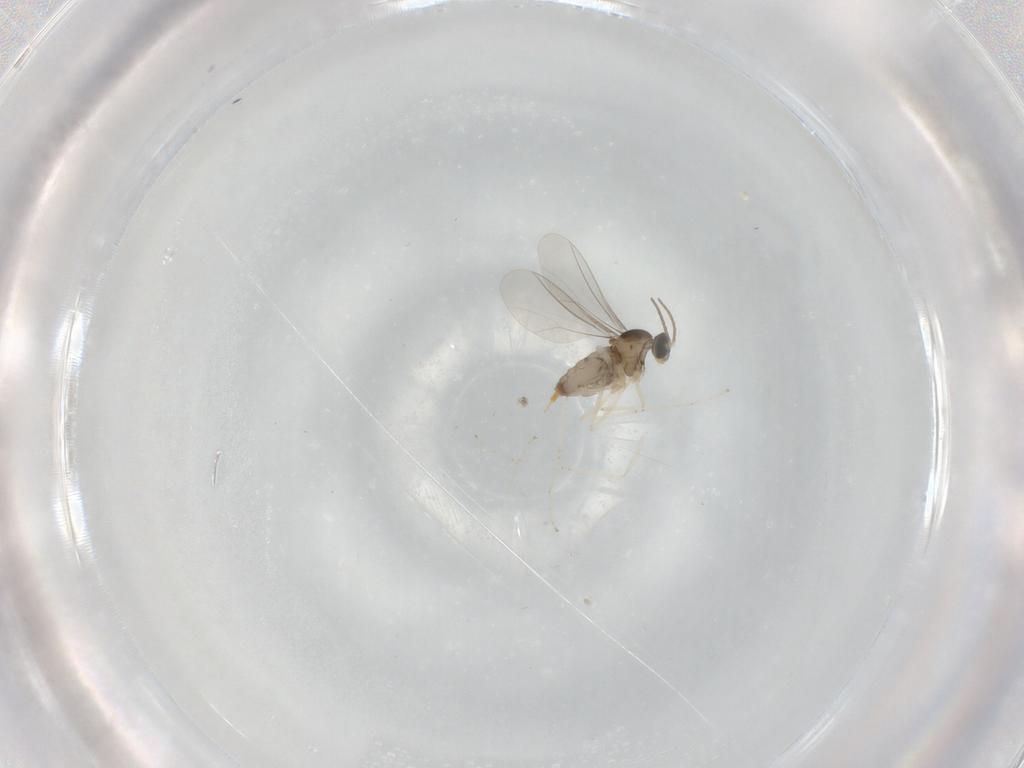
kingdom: Animalia
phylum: Arthropoda
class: Insecta
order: Diptera
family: Cecidomyiidae
